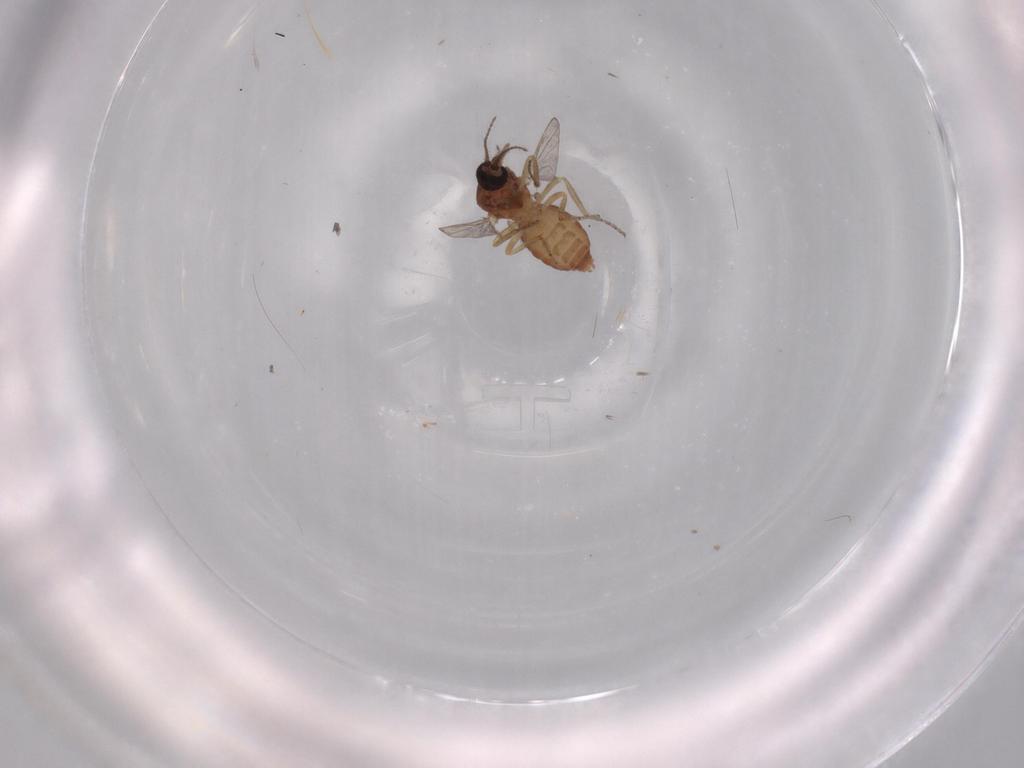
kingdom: Animalia
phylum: Arthropoda
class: Insecta
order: Diptera
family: Ceratopogonidae
